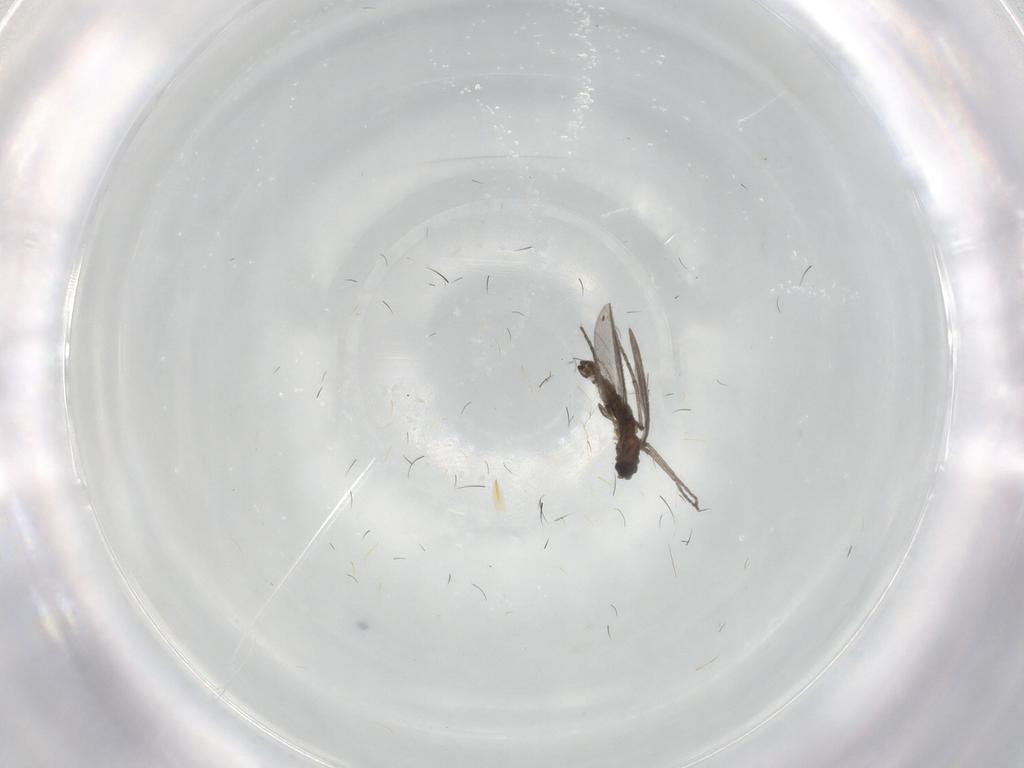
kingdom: Animalia
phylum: Arthropoda
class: Insecta
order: Diptera
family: Sciaridae
